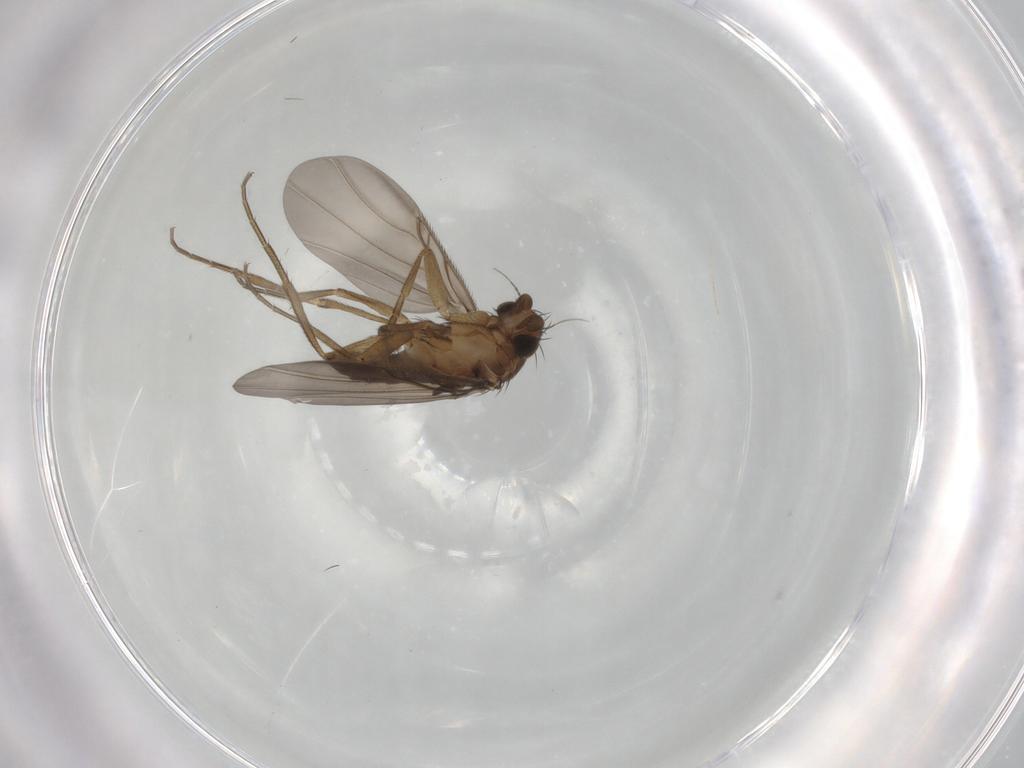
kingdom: Animalia
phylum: Arthropoda
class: Insecta
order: Diptera
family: Phoridae
